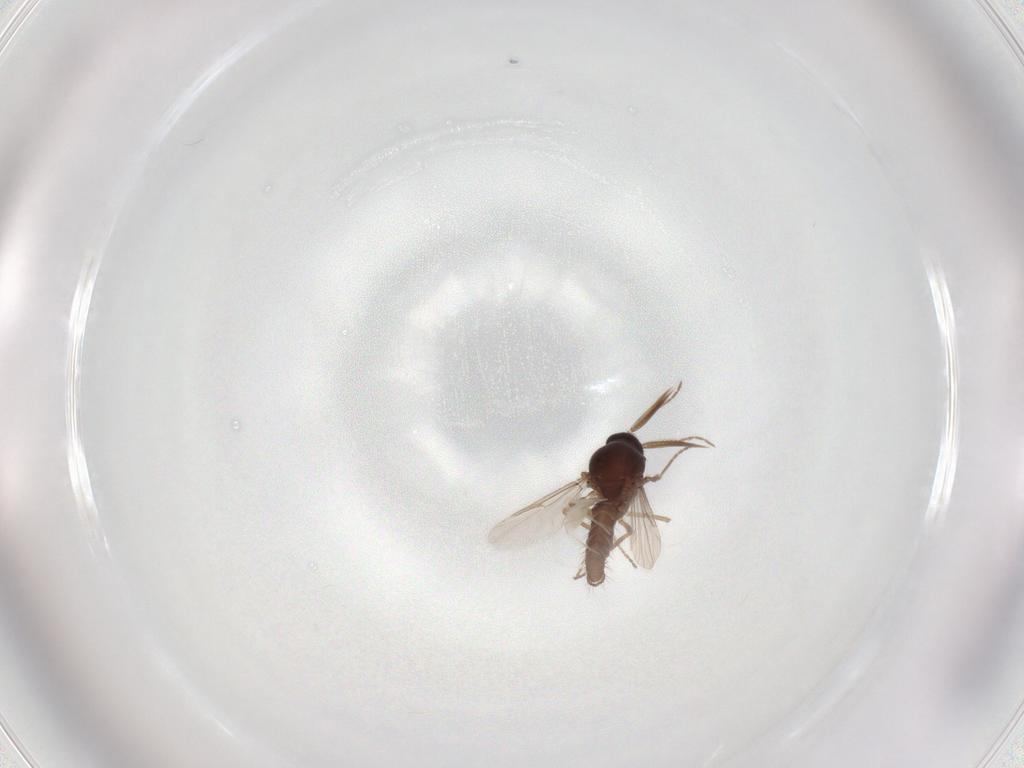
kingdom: Animalia
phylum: Arthropoda
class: Insecta
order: Diptera
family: Ceratopogonidae
